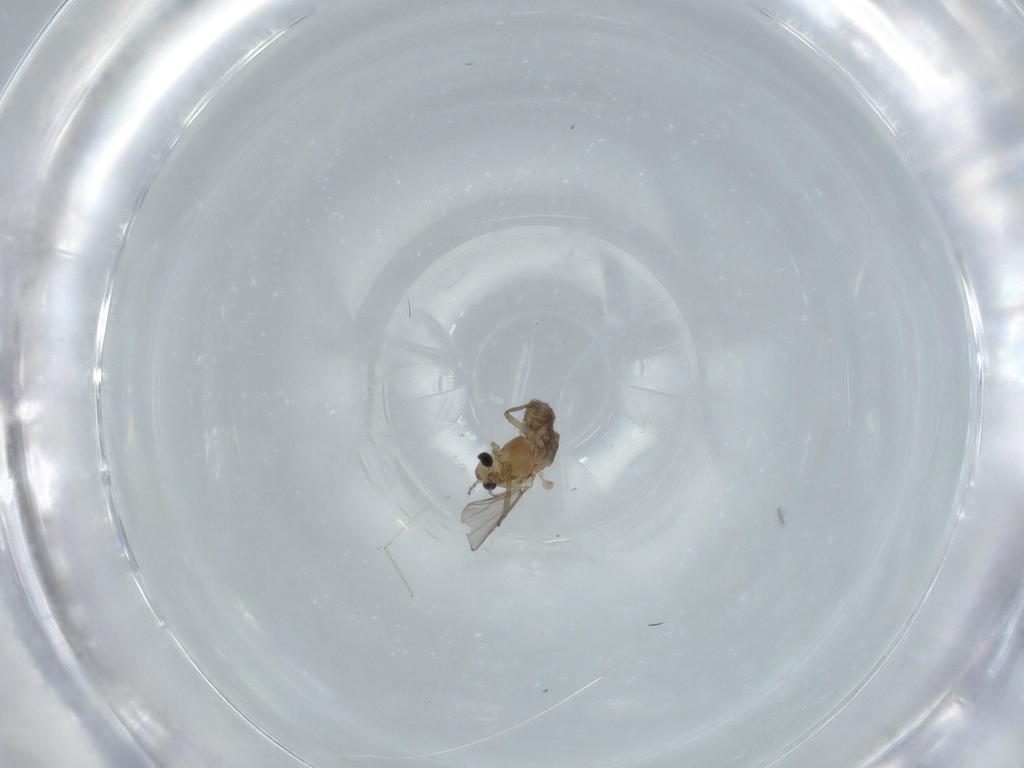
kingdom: Animalia
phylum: Arthropoda
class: Insecta
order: Diptera
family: Chironomidae
